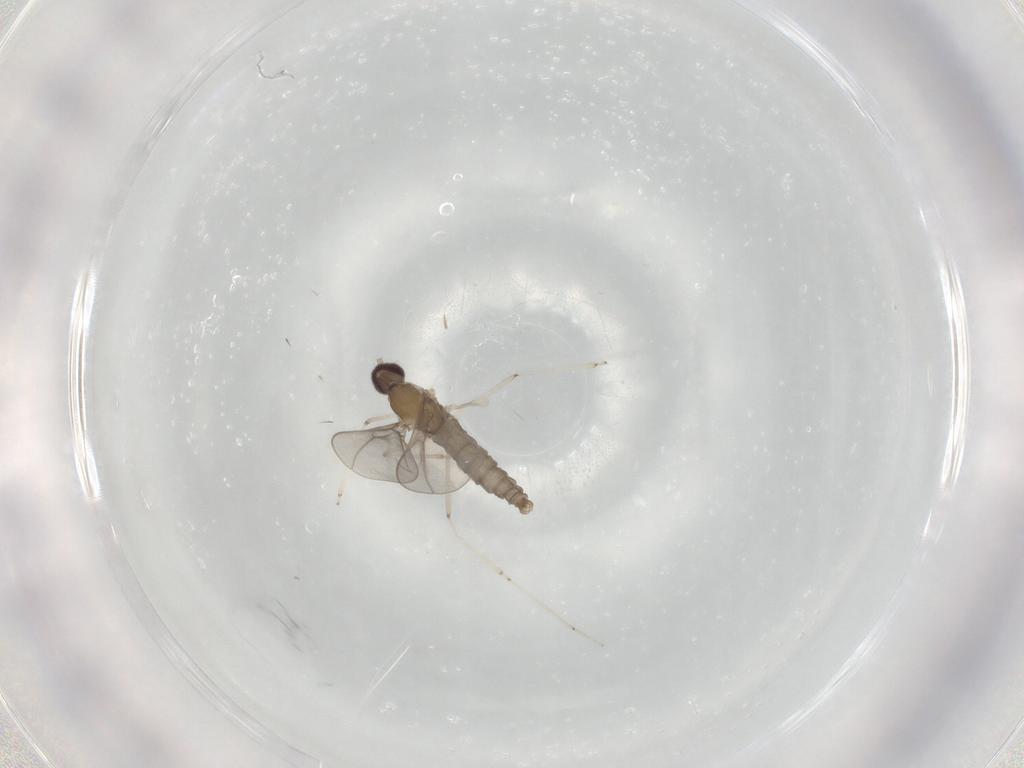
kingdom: Animalia
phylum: Arthropoda
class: Insecta
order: Diptera
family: Cecidomyiidae
